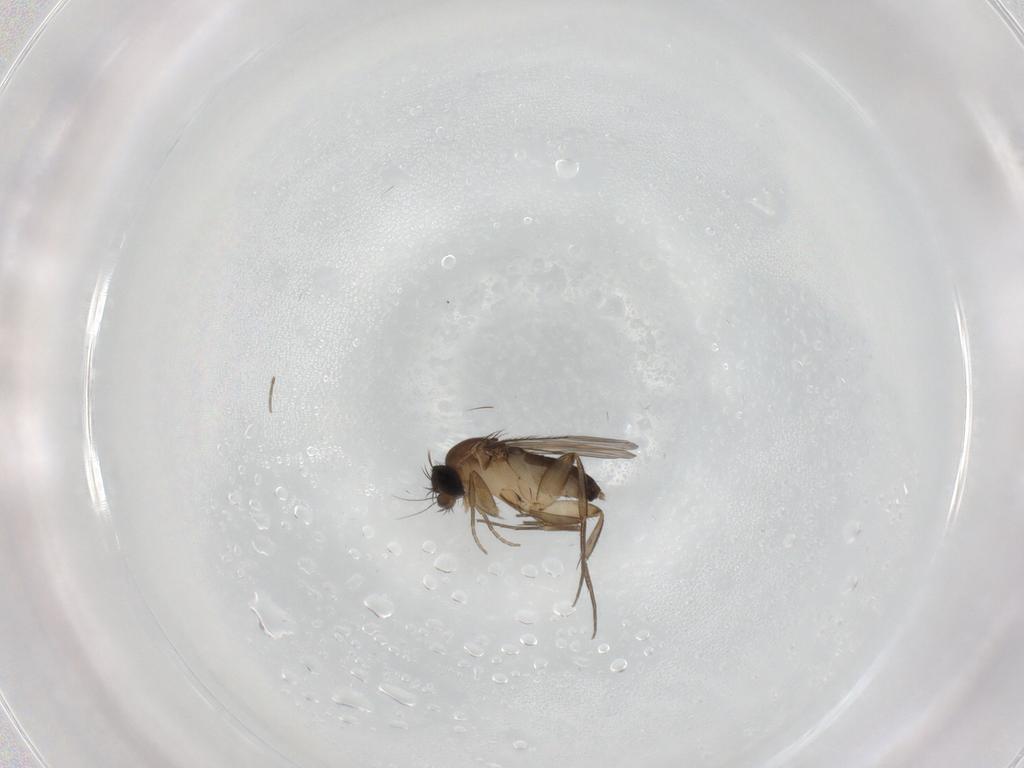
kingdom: Animalia
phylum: Arthropoda
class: Insecta
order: Diptera
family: Phoridae
